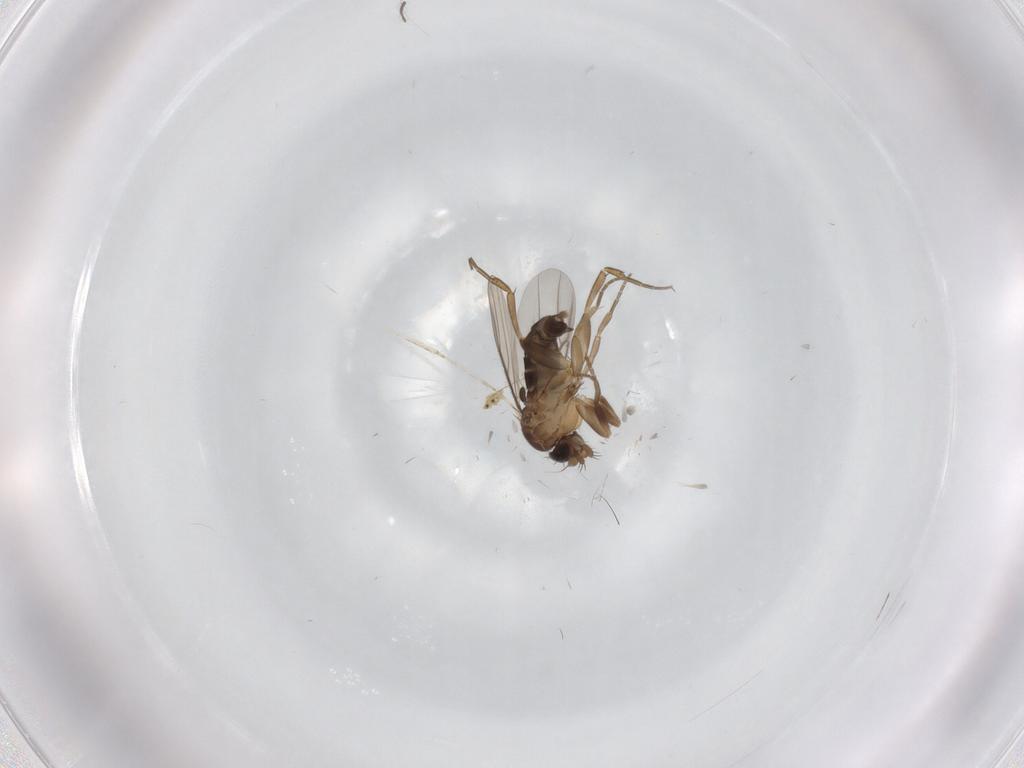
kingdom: Animalia
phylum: Arthropoda
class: Insecta
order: Diptera
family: Phoridae
